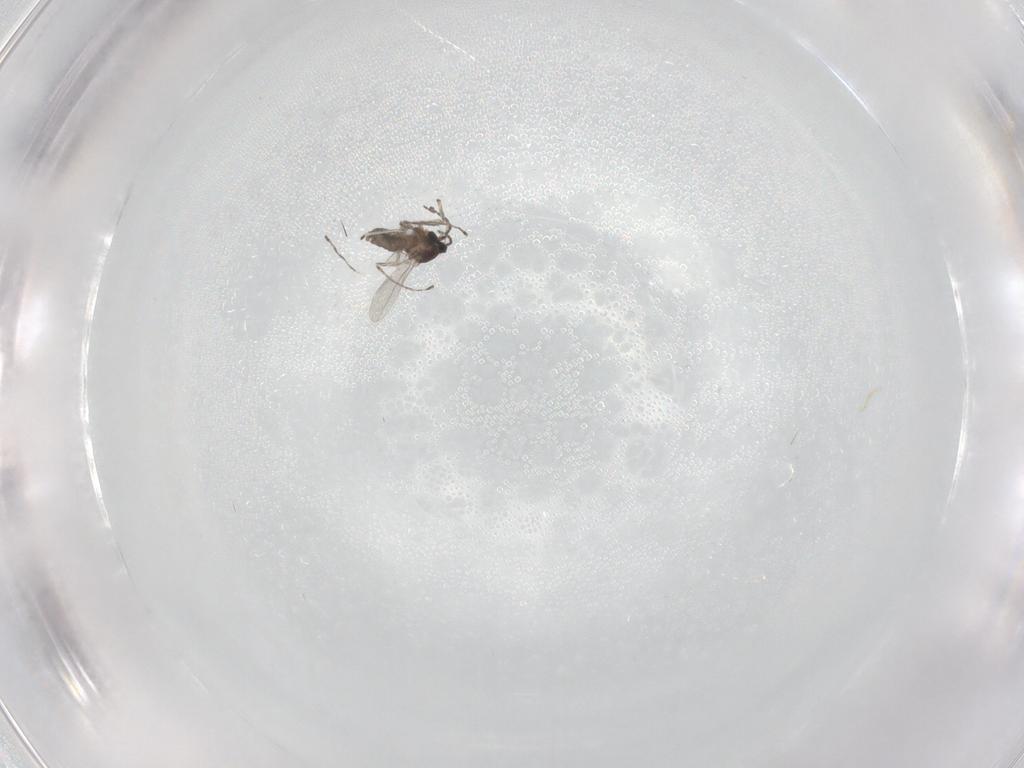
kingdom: Animalia
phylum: Arthropoda
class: Insecta
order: Diptera
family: Cecidomyiidae
